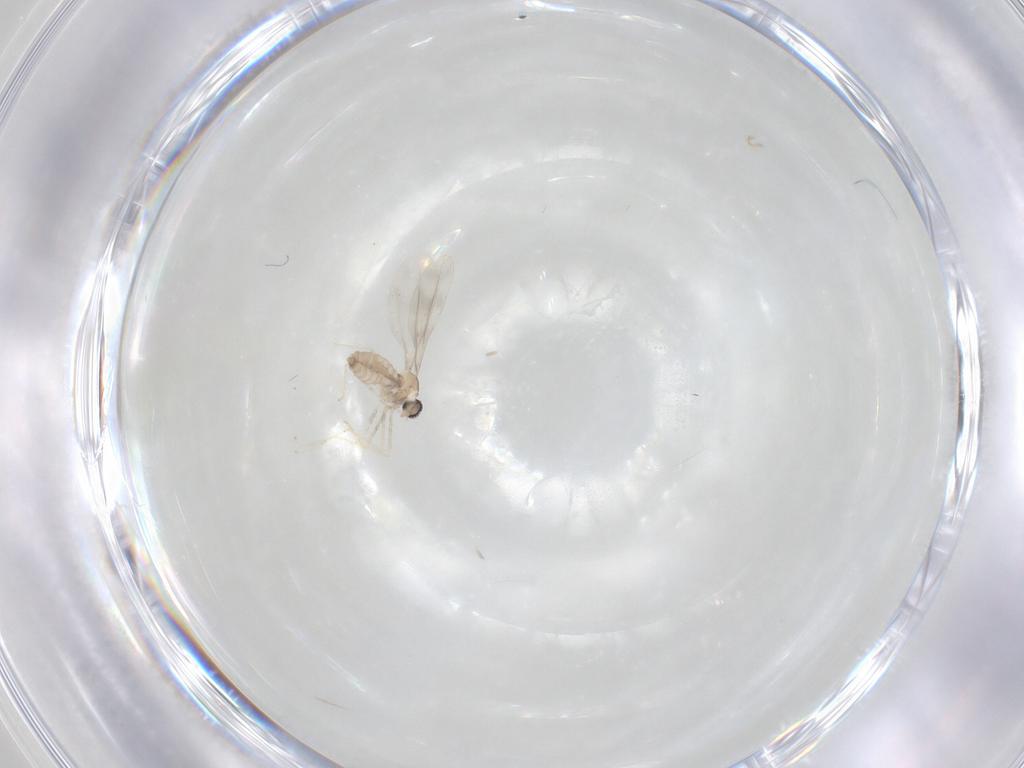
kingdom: Animalia
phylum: Arthropoda
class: Insecta
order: Diptera
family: Cecidomyiidae
